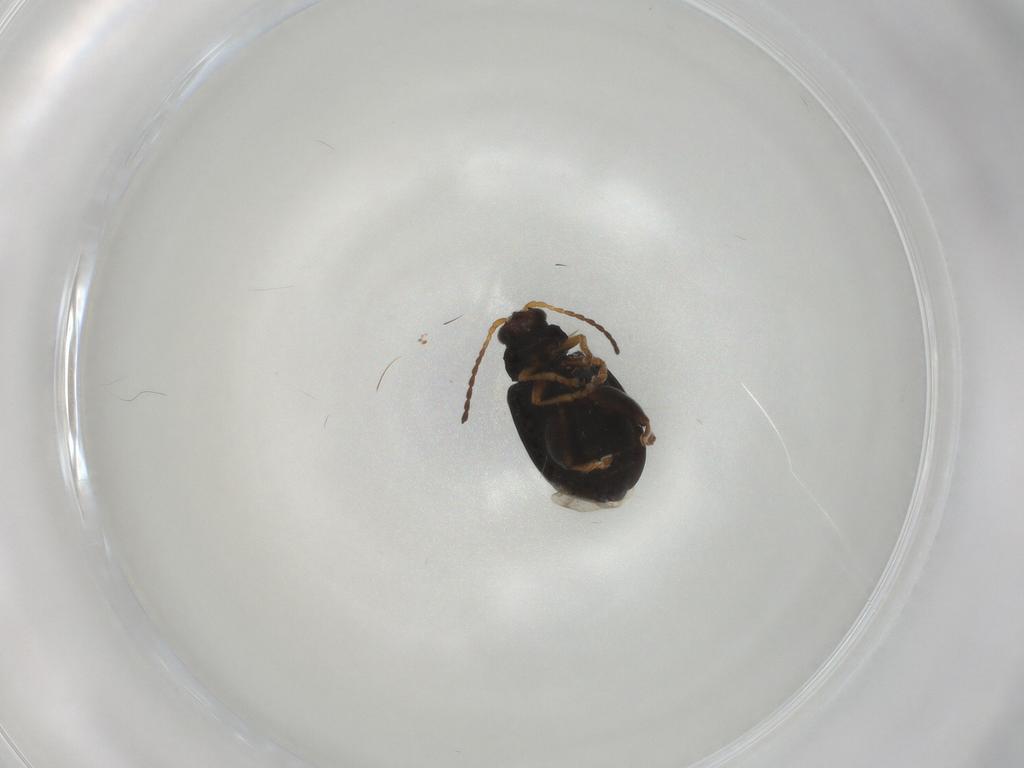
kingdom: Animalia
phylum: Arthropoda
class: Insecta
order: Coleoptera
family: Chrysomelidae
